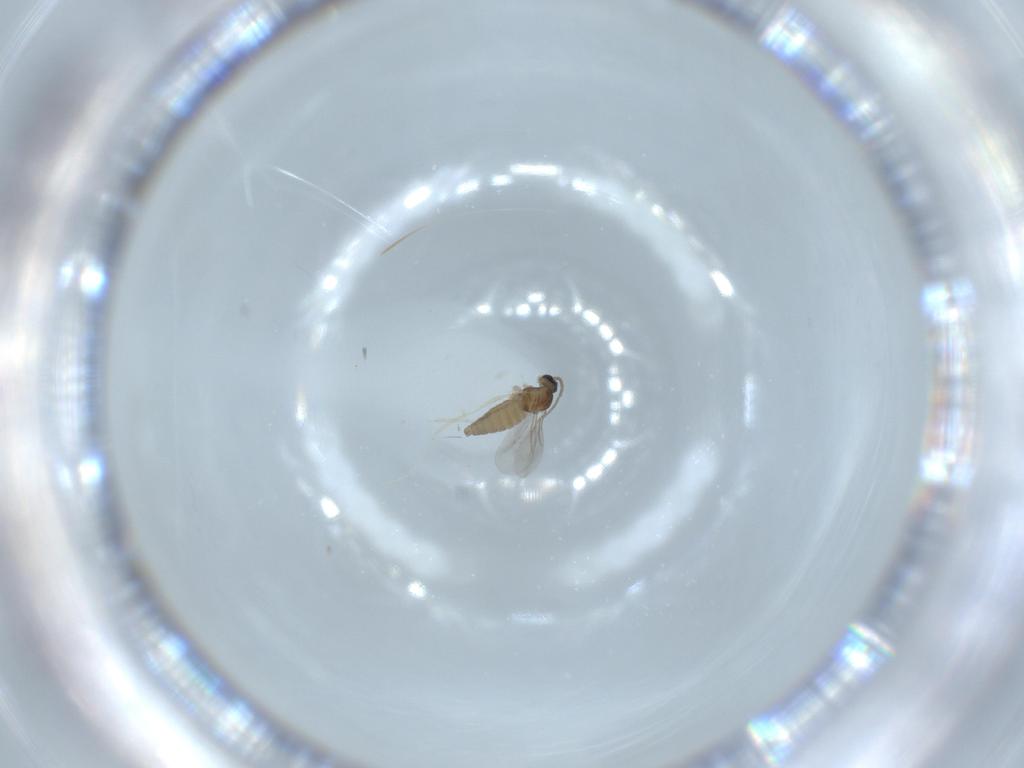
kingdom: Animalia
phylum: Arthropoda
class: Insecta
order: Diptera
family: Cecidomyiidae
